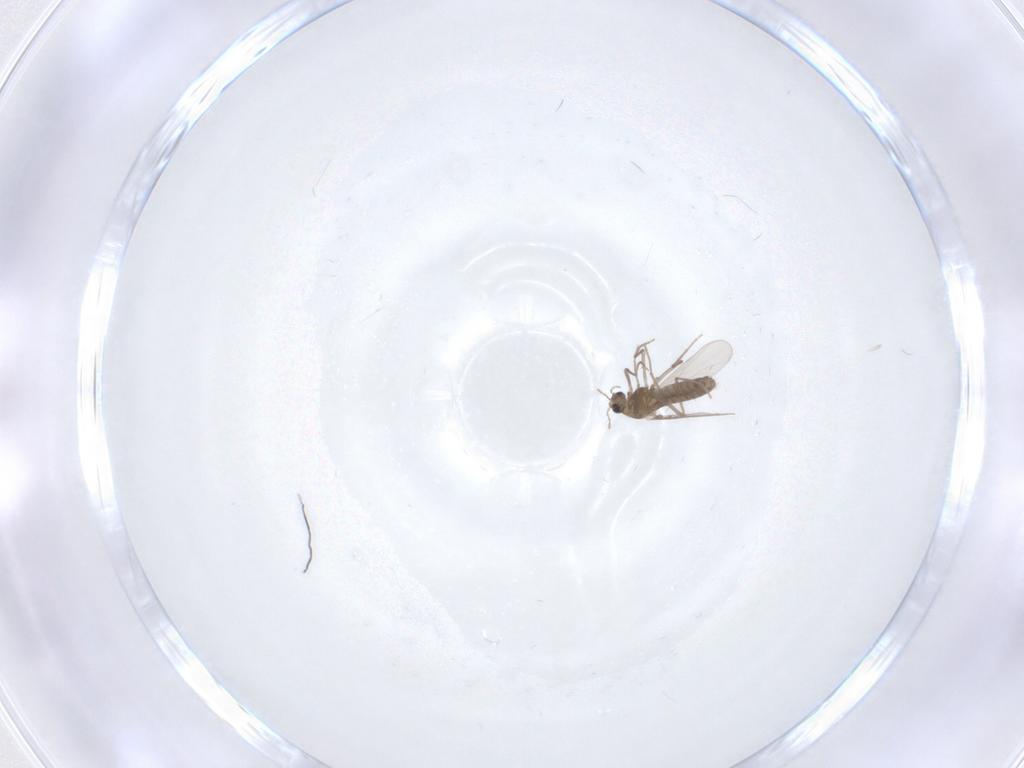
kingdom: Animalia
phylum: Arthropoda
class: Insecta
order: Diptera
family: Chironomidae
